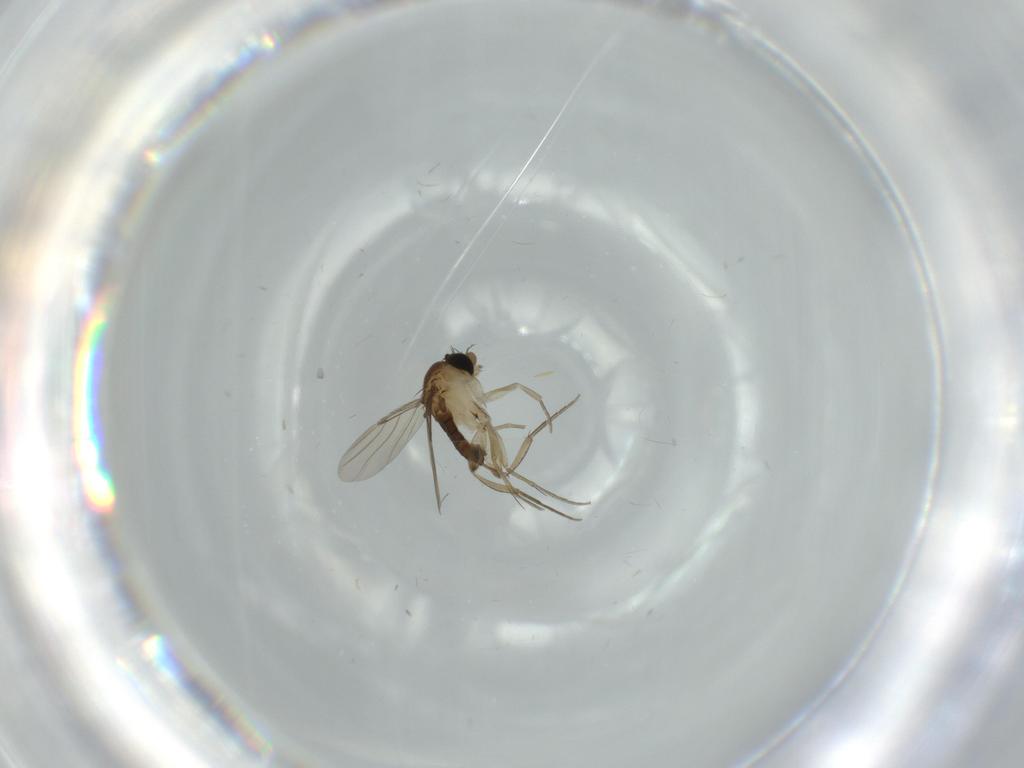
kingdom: Animalia
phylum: Arthropoda
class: Insecta
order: Diptera
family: Phoridae
